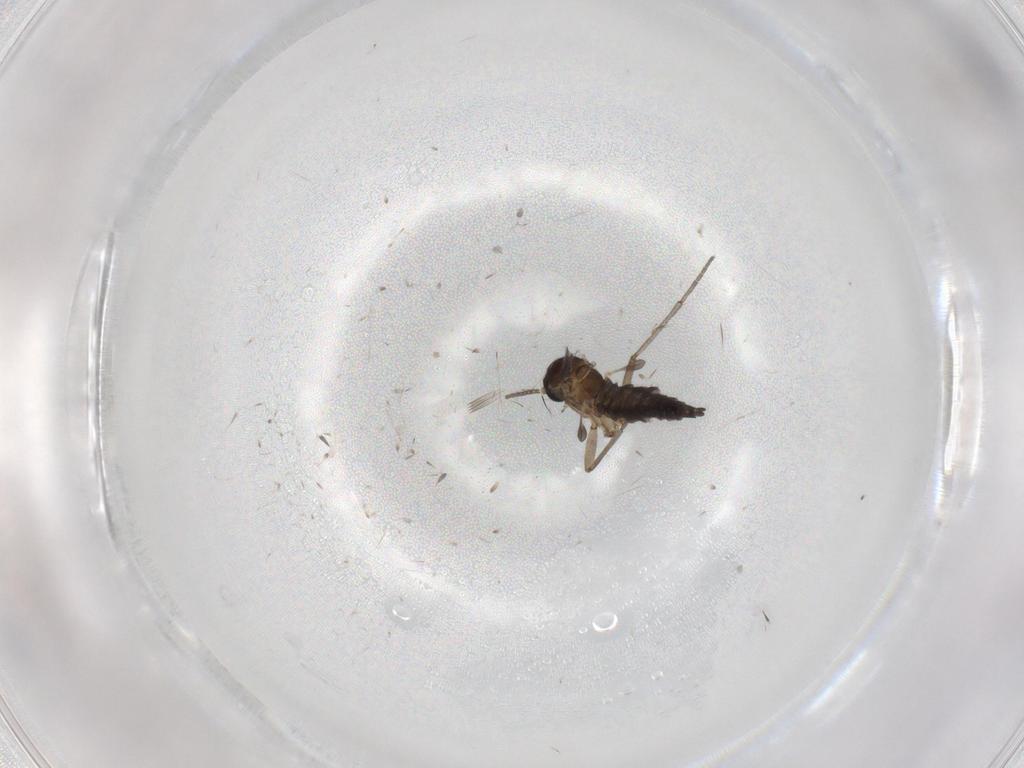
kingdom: Animalia
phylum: Arthropoda
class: Insecta
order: Diptera
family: Sciaridae
